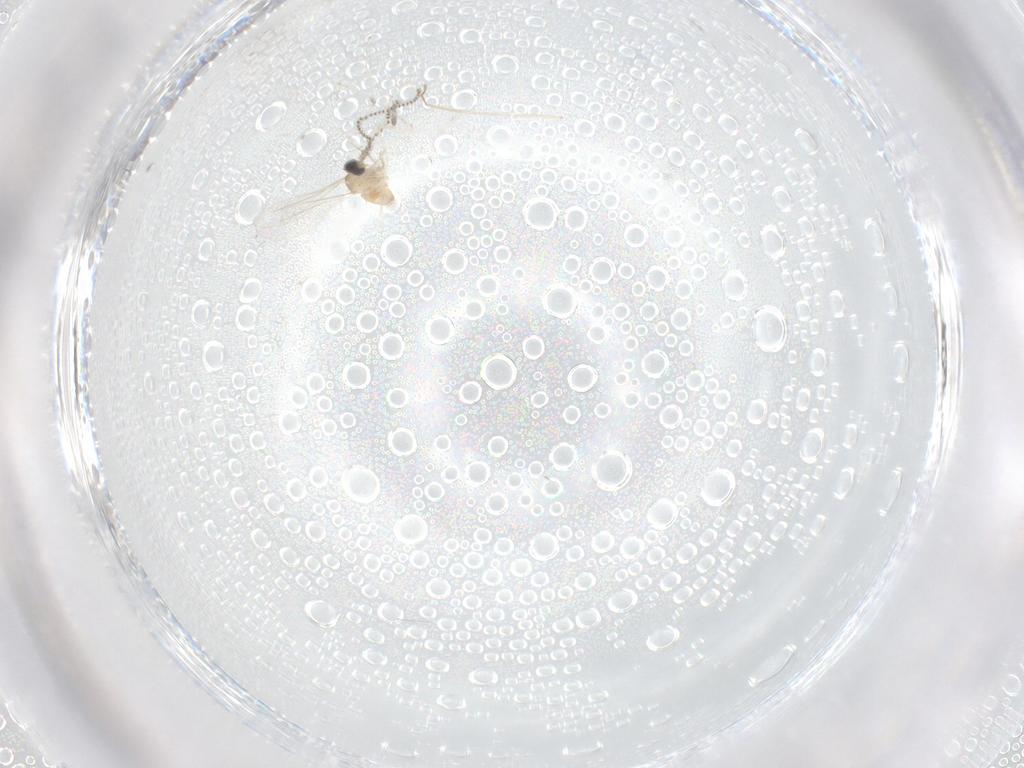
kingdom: Animalia
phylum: Arthropoda
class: Insecta
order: Diptera
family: Cecidomyiidae
